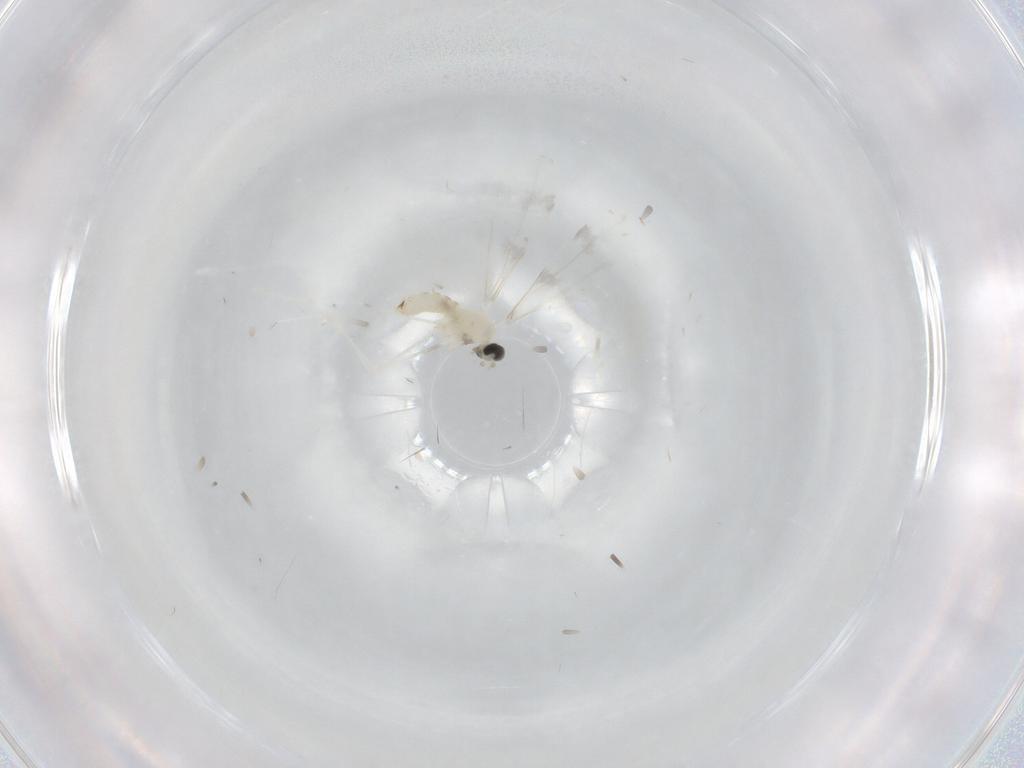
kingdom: Animalia
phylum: Arthropoda
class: Insecta
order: Diptera
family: Cecidomyiidae
